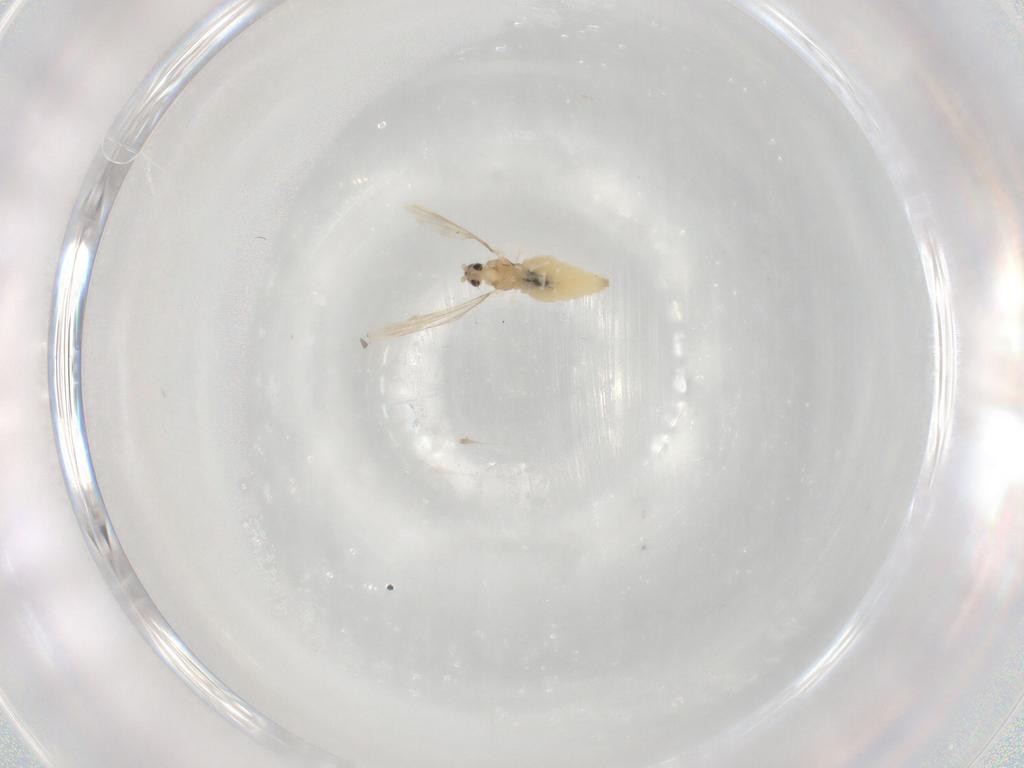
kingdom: Animalia
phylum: Arthropoda
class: Insecta
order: Diptera
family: Cecidomyiidae
